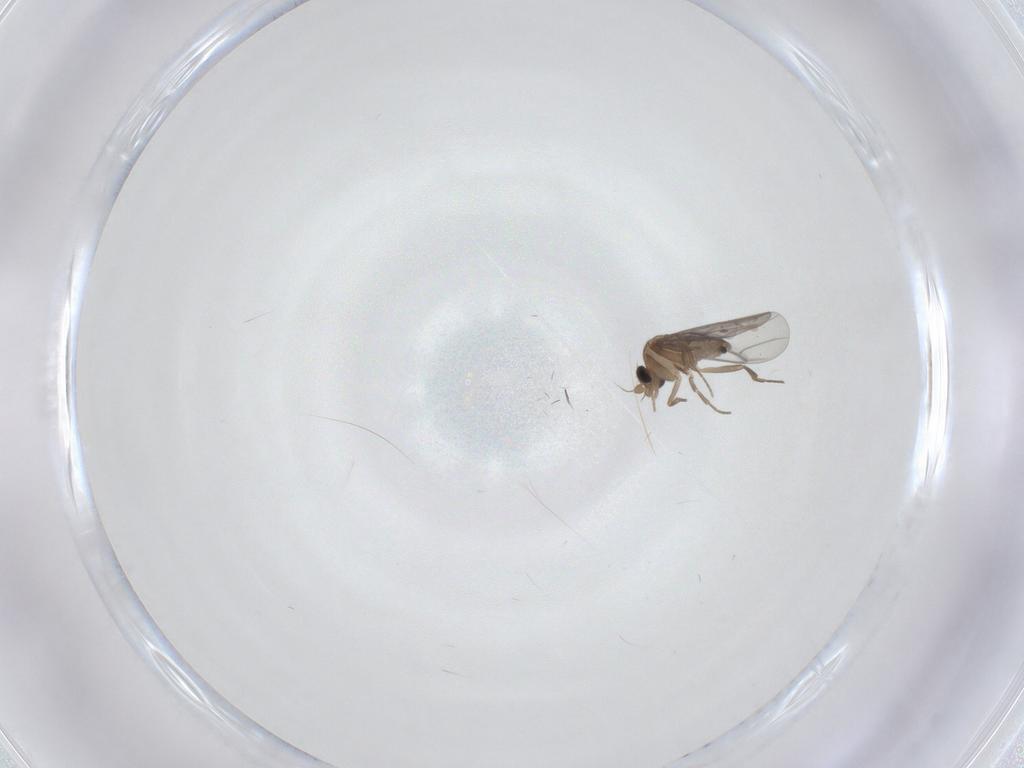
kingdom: Animalia
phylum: Arthropoda
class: Insecta
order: Diptera
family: Cecidomyiidae
